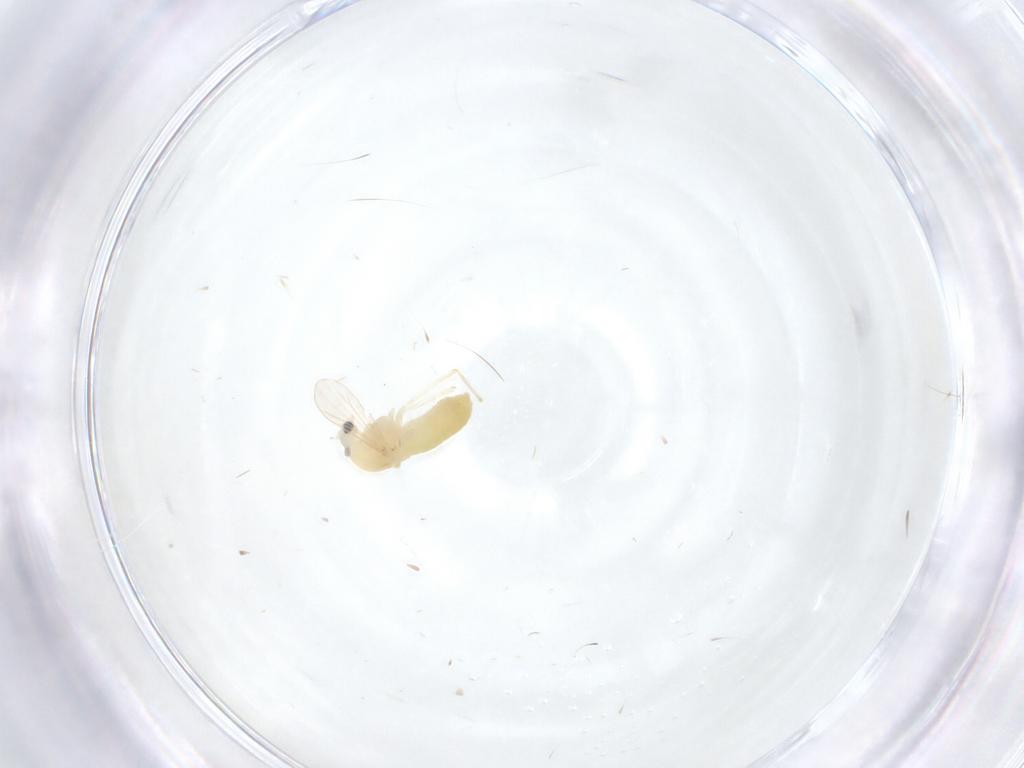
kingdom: Animalia
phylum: Arthropoda
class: Insecta
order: Diptera
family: Chironomidae
